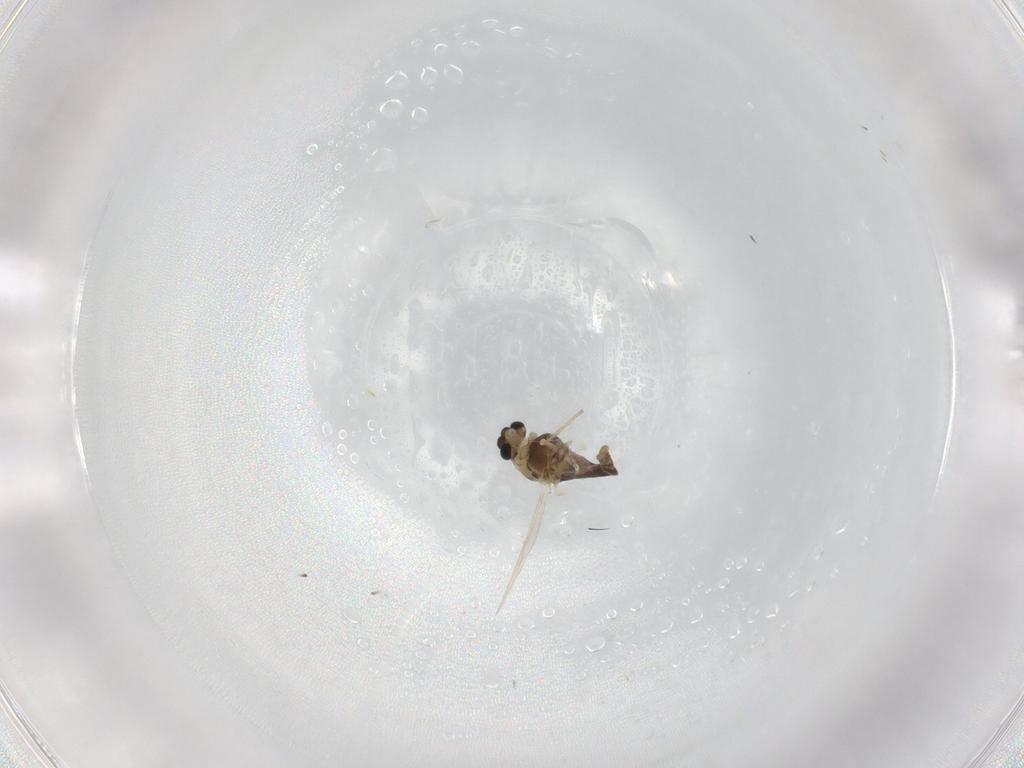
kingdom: Animalia
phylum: Arthropoda
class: Insecta
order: Diptera
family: Chironomidae
